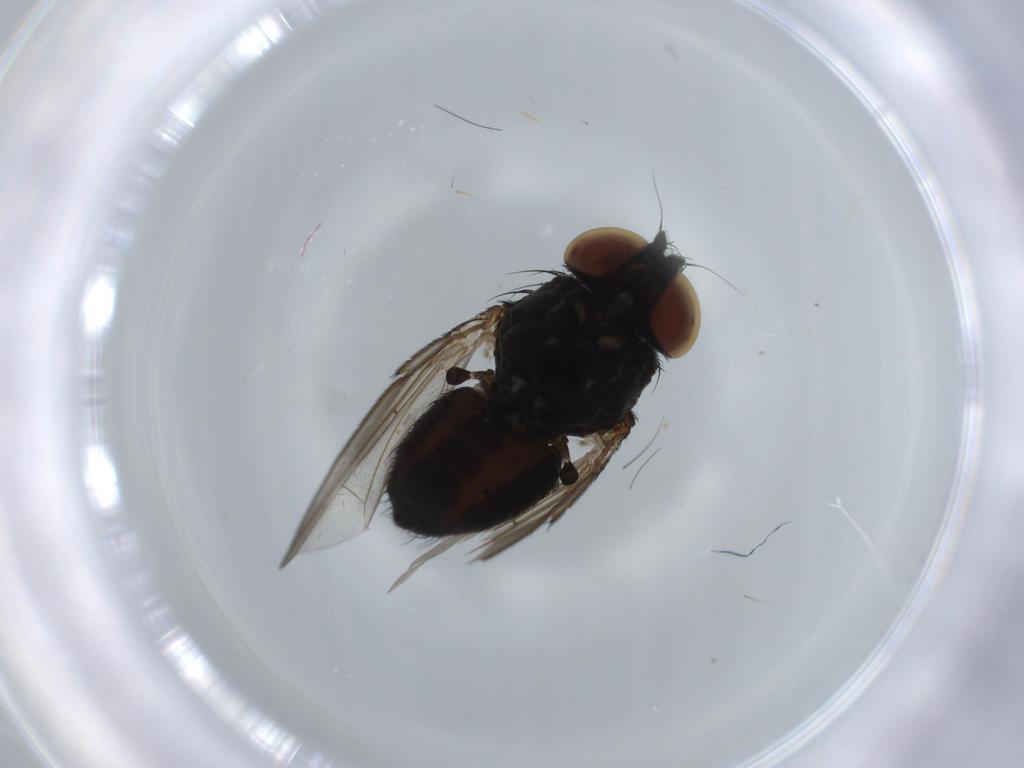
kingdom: Animalia
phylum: Arthropoda
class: Insecta
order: Diptera
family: Milichiidae
